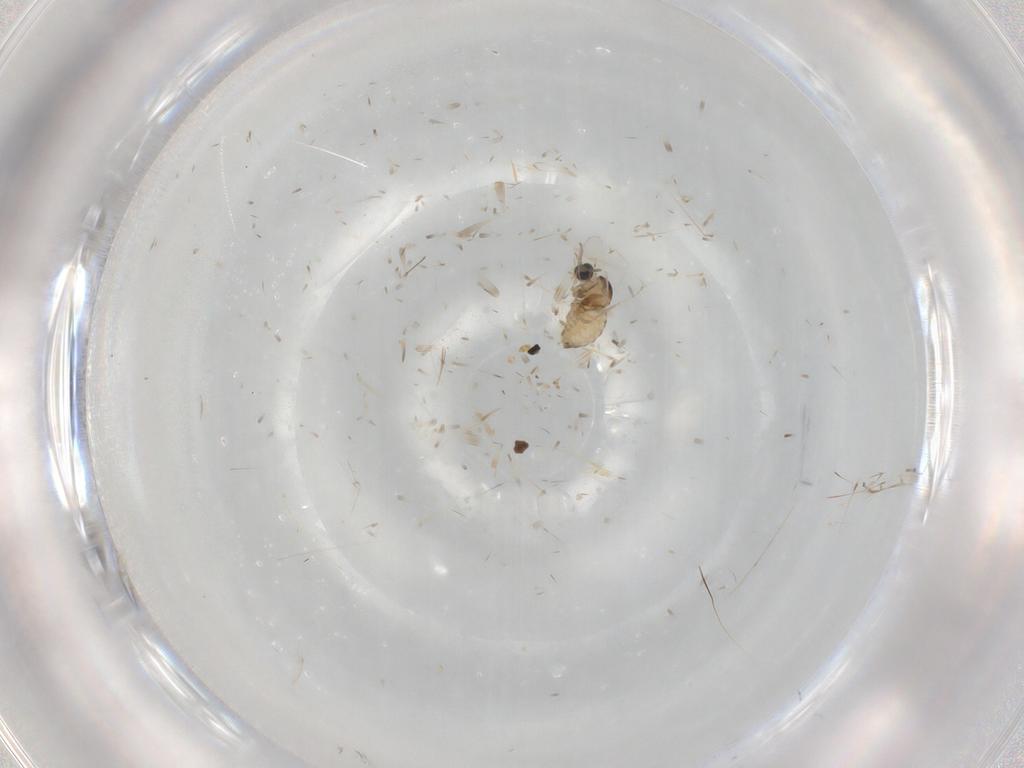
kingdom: Animalia
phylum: Arthropoda
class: Insecta
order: Diptera
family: Cecidomyiidae
